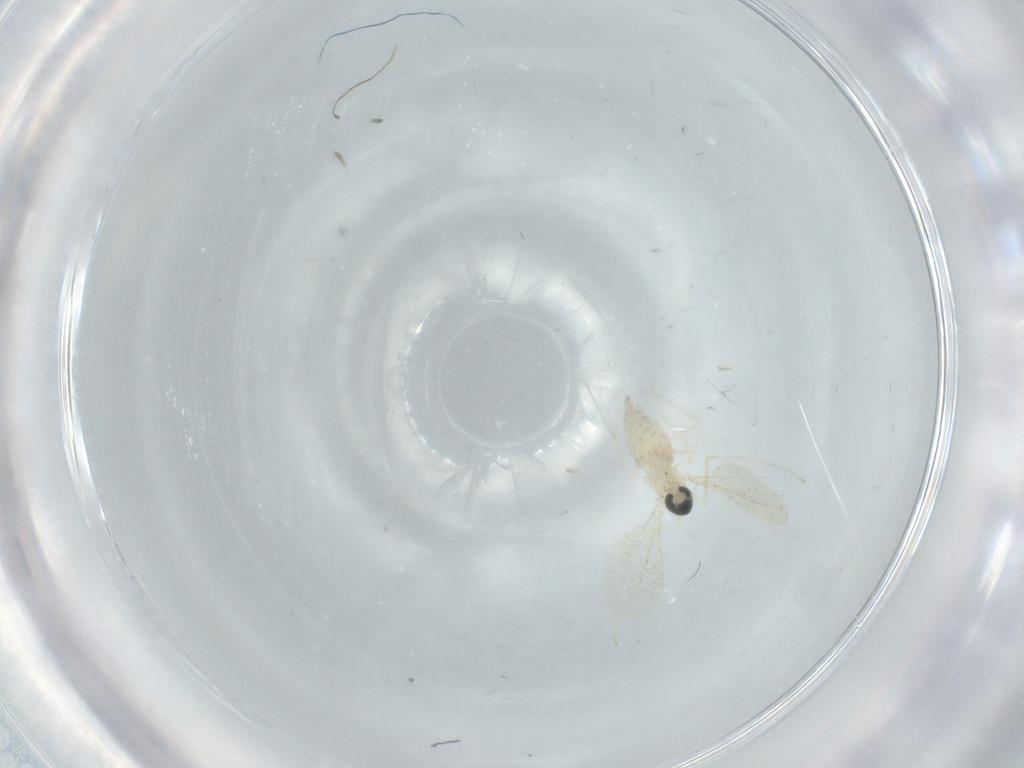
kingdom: Animalia
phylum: Arthropoda
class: Insecta
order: Diptera
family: Cecidomyiidae
